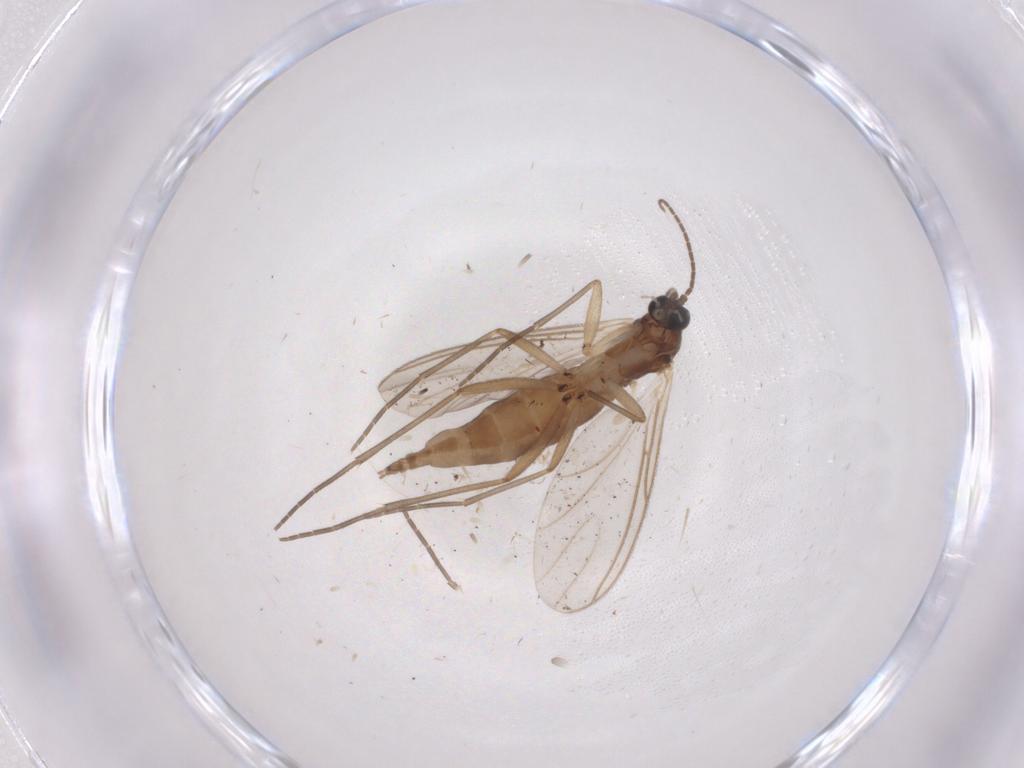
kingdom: Animalia
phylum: Arthropoda
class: Insecta
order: Diptera
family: Sciaridae
